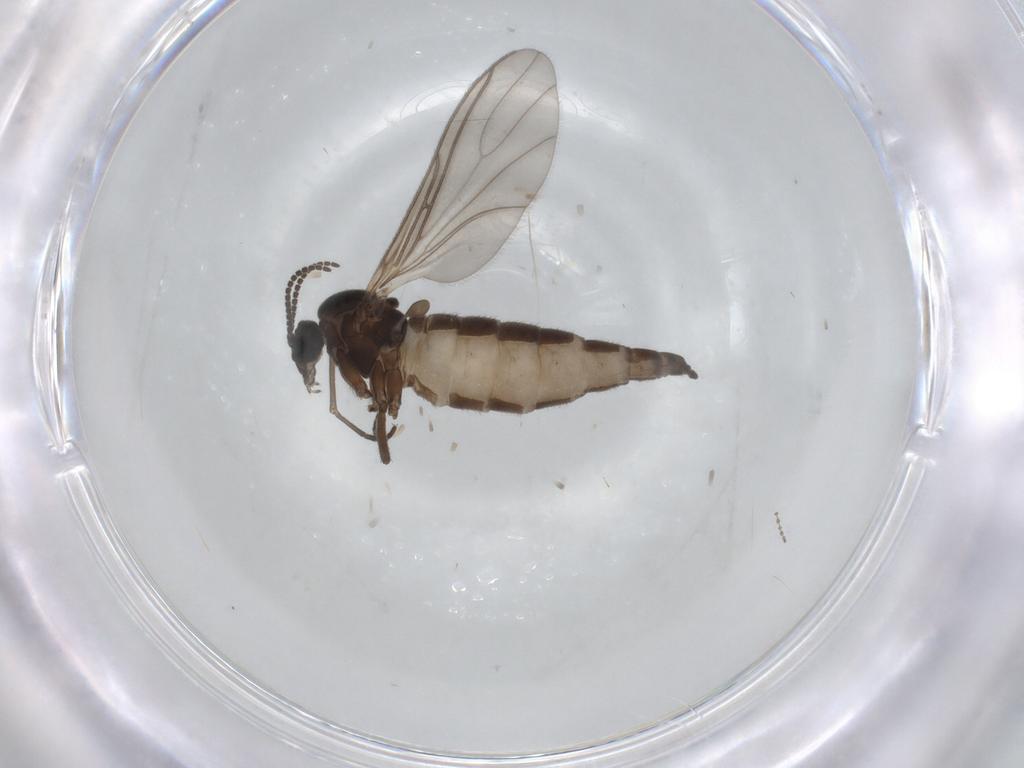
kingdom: Animalia
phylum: Arthropoda
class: Insecta
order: Diptera
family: Sciaridae
